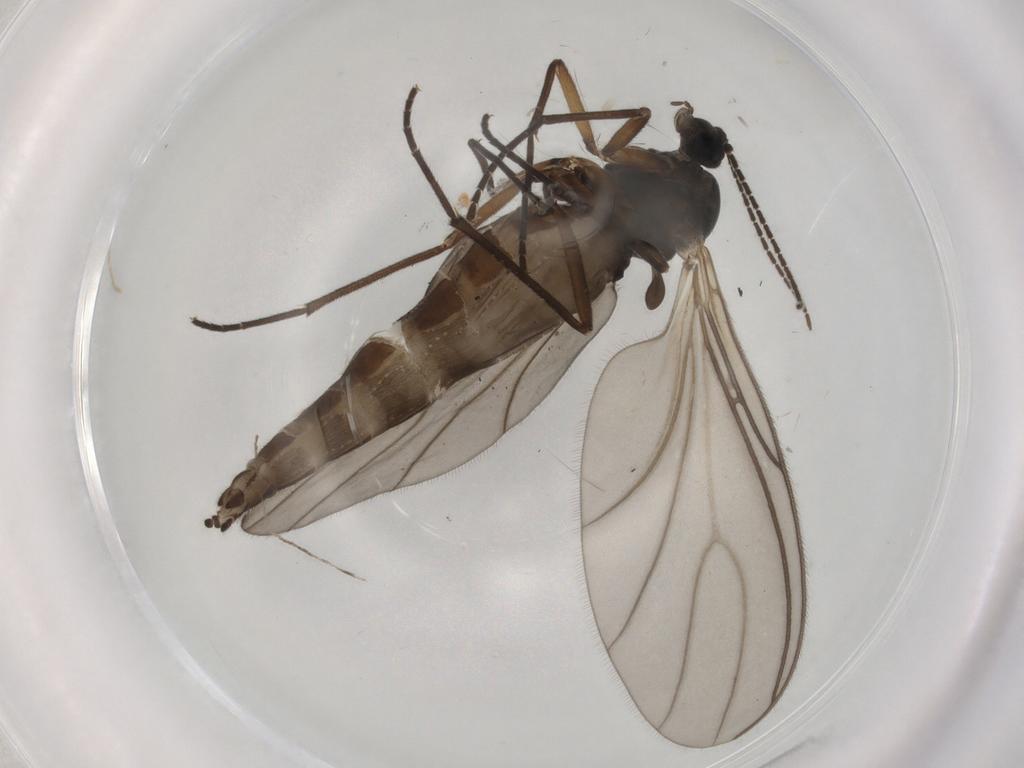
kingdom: Animalia
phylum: Arthropoda
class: Insecta
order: Diptera
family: Sciaridae
